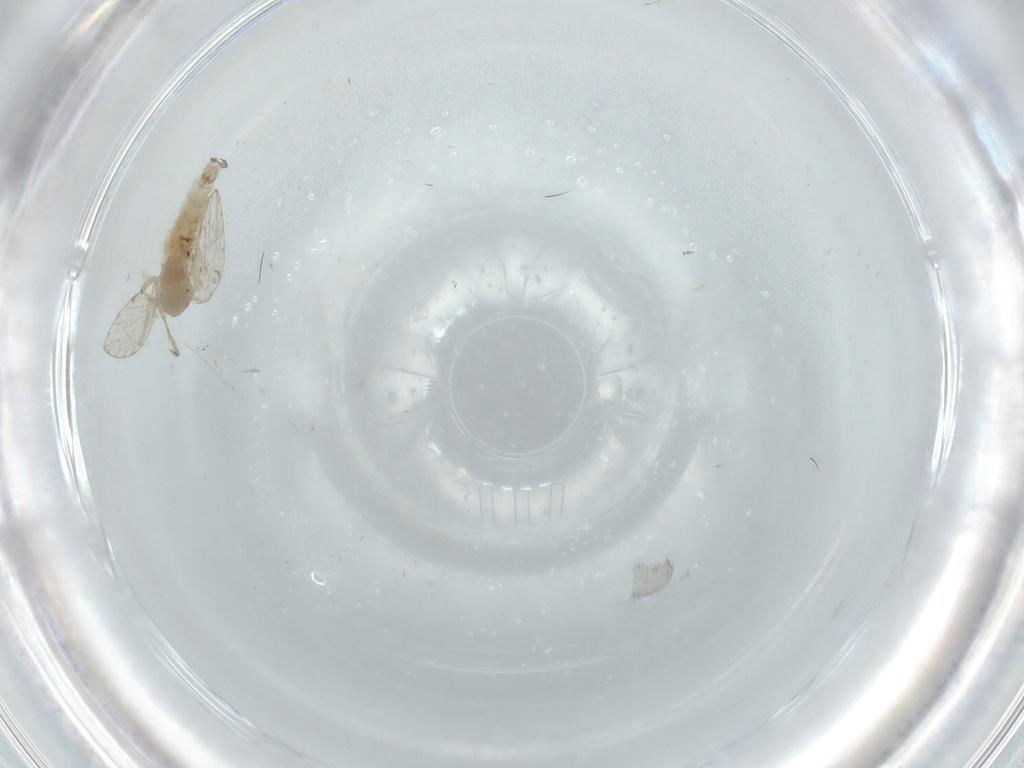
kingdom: Animalia
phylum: Arthropoda
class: Insecta
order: Diptera
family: Psychodidae
